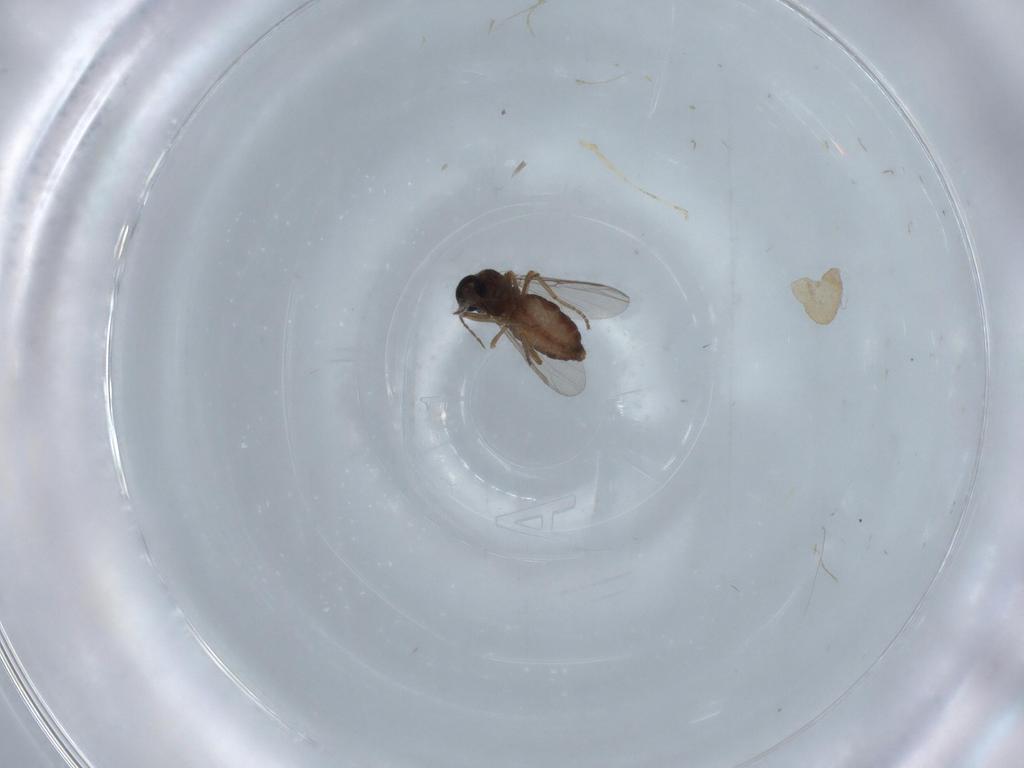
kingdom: Animalia
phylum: Arthropoda
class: Insecta
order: Diptera
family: Ceratopogonidae
